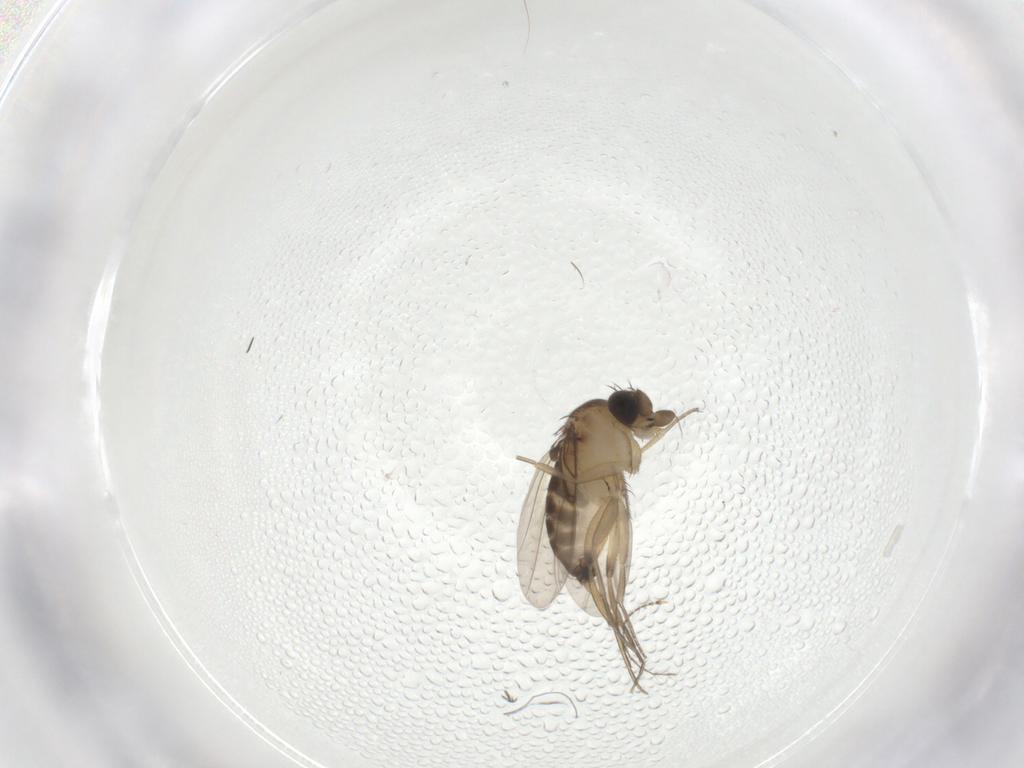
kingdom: Animalia
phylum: Arthropoda
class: Insecta
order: Diptera
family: Phoridae
